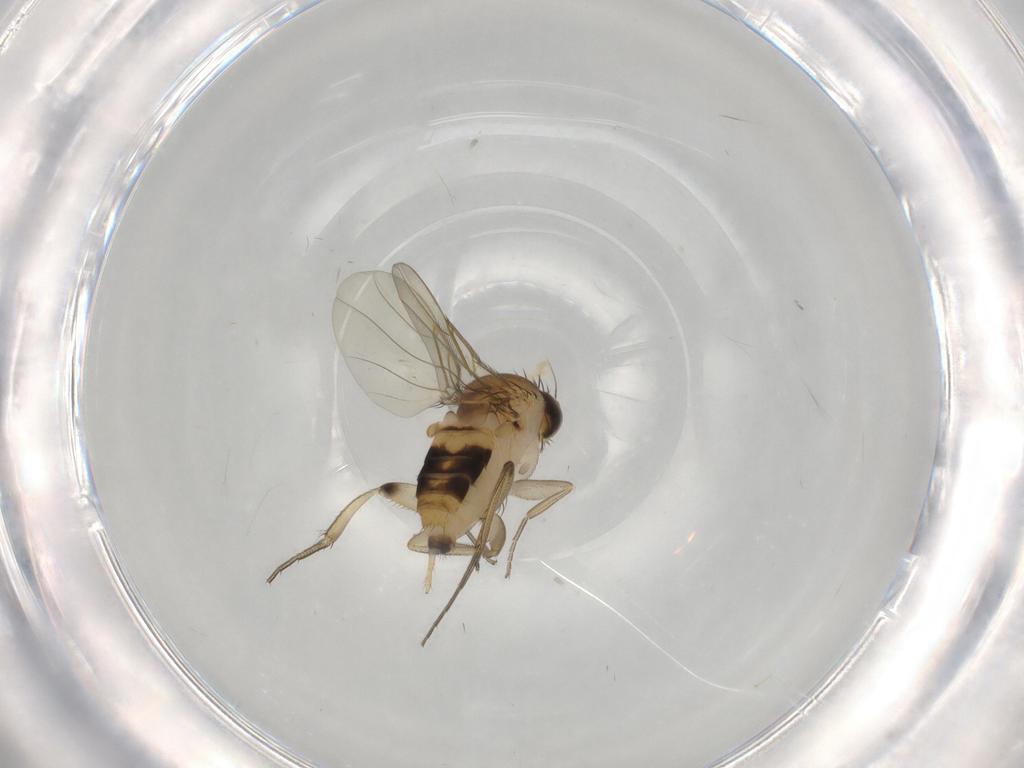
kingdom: Animalia
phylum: Arthropoda
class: Insecta
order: Diptera
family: Phoridae
